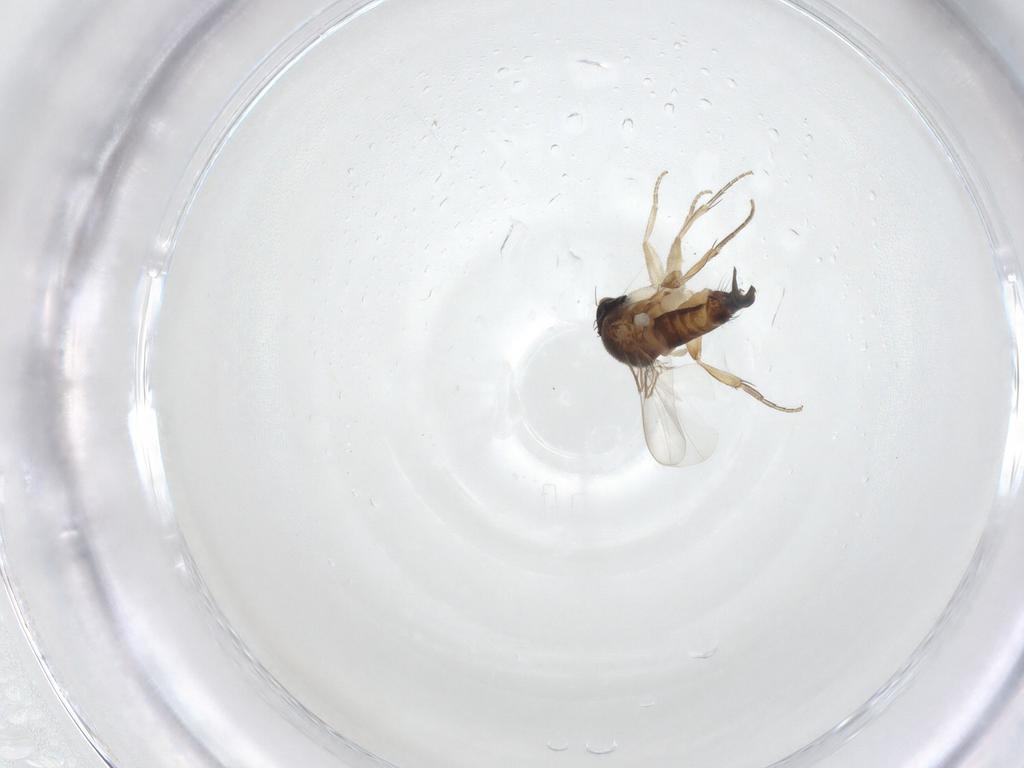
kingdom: Animalia
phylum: Arthropoda
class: Insecta
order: Diptera
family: Phoridae
